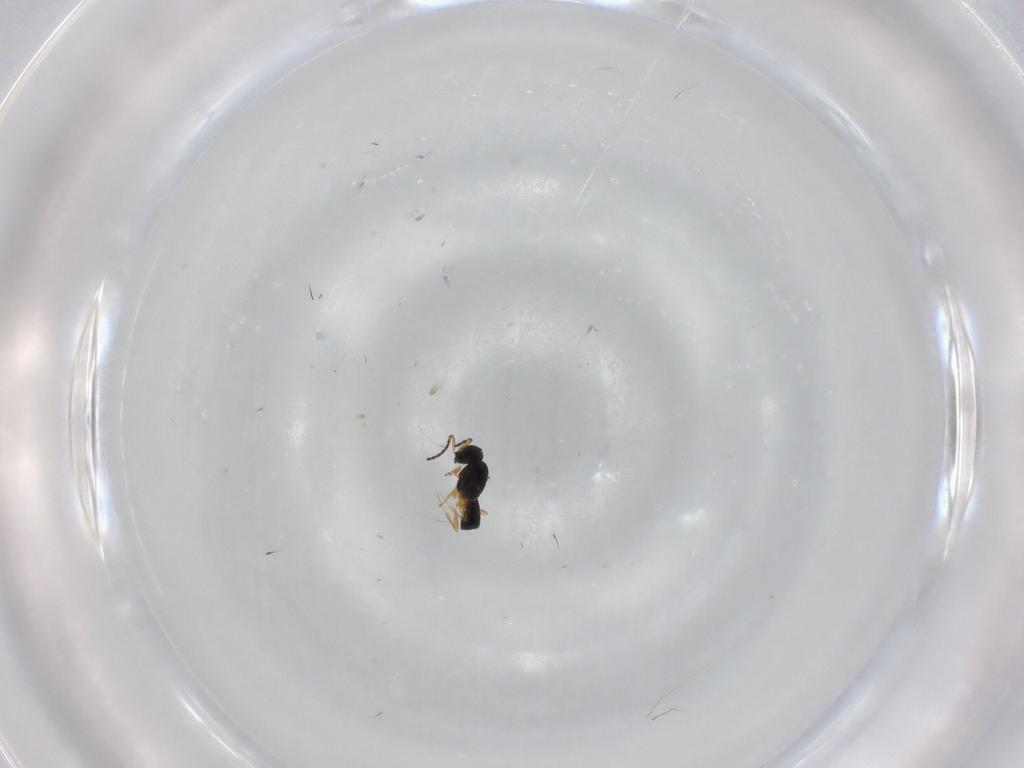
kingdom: Animalia
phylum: Arthropoda
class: Insecta
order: Hymenoptera
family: Scelionidae
